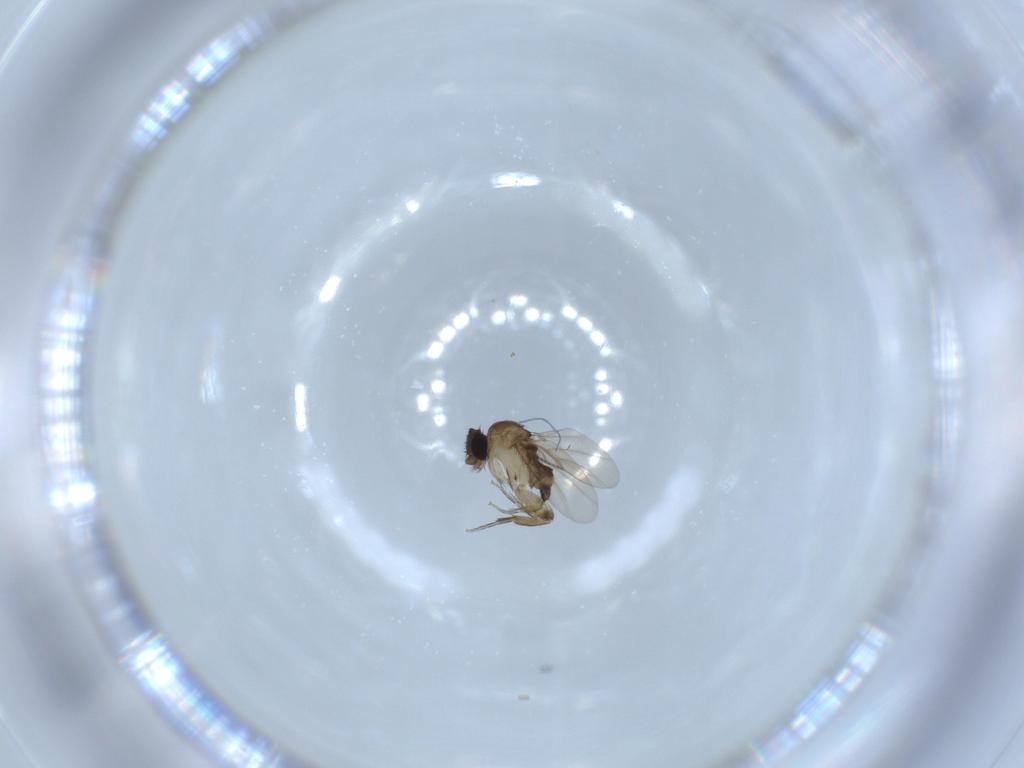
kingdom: Animalia
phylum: Arthropoda
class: Insecta
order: Diptera
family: Phoridae
